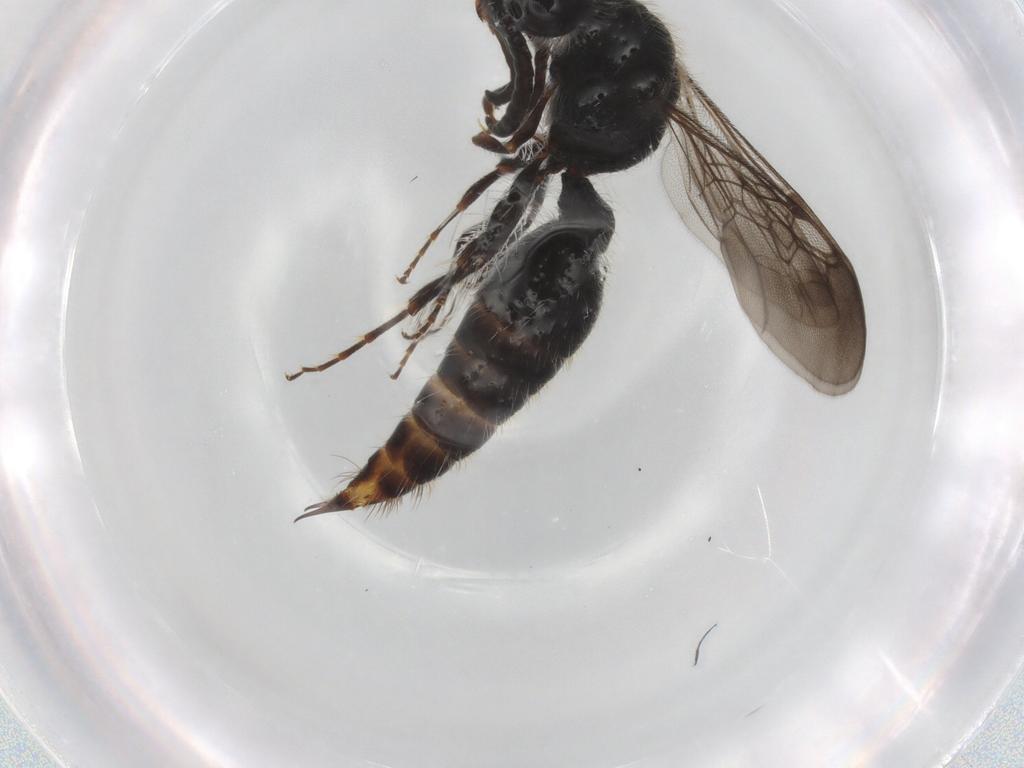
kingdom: Animalia
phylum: Arthropoda
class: Insecta
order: Hymenoptera
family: Mutillidae
